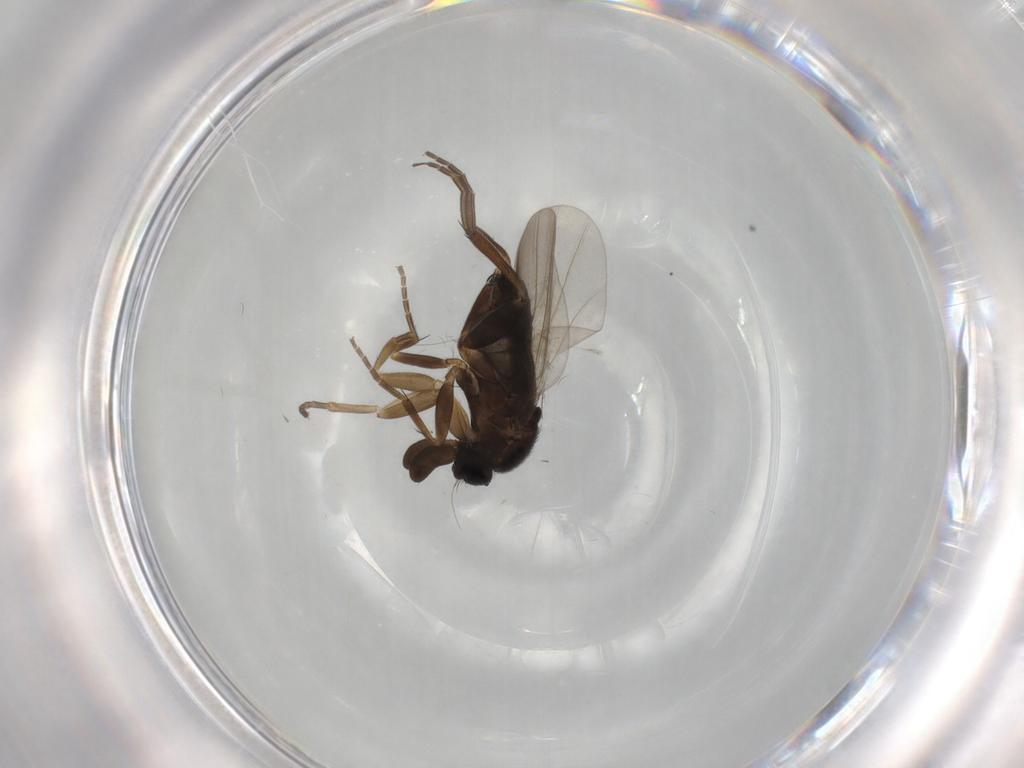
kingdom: Animalia
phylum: Arthropoda
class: Insecta
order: Diptera
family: Phoridae
